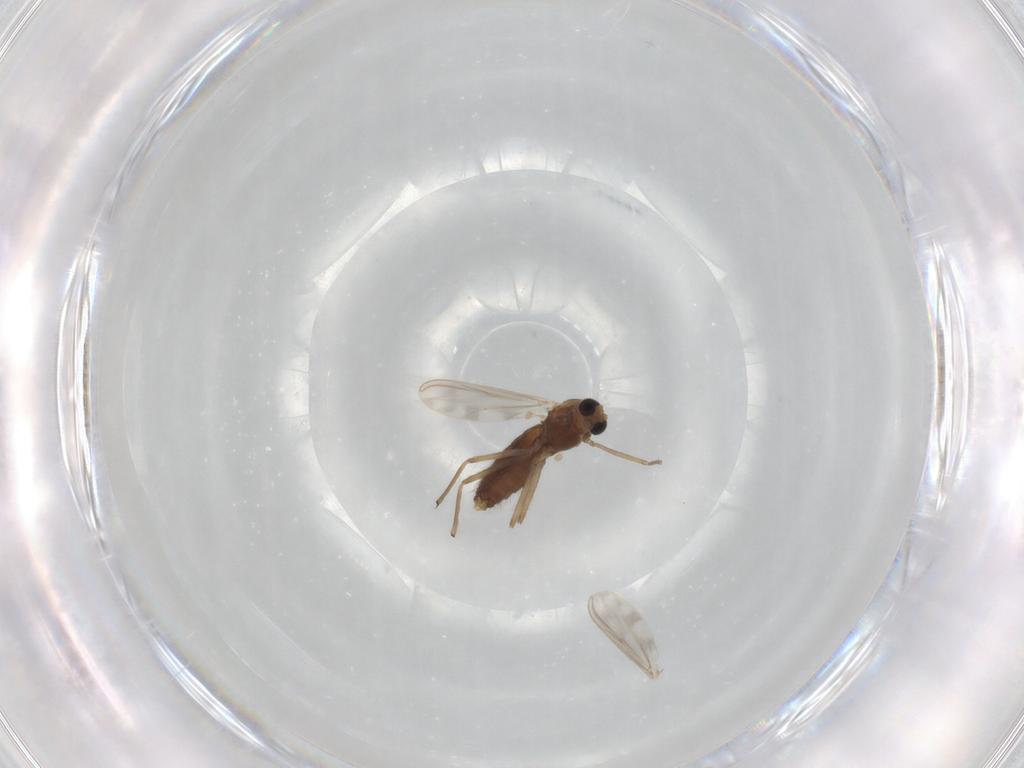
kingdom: Animalia
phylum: Arthropoda
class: Insecta
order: Diptera
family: Chironomidae
